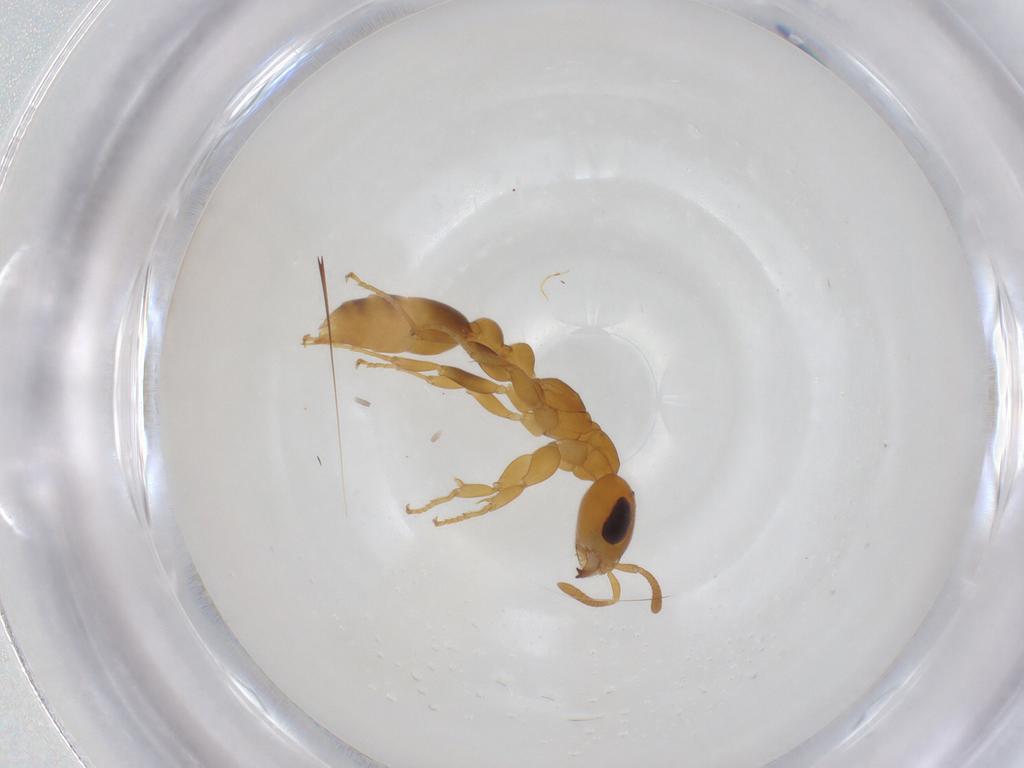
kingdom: Animalia
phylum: Arthropoda
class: Insecta
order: Hymenoptera
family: Formicidae
